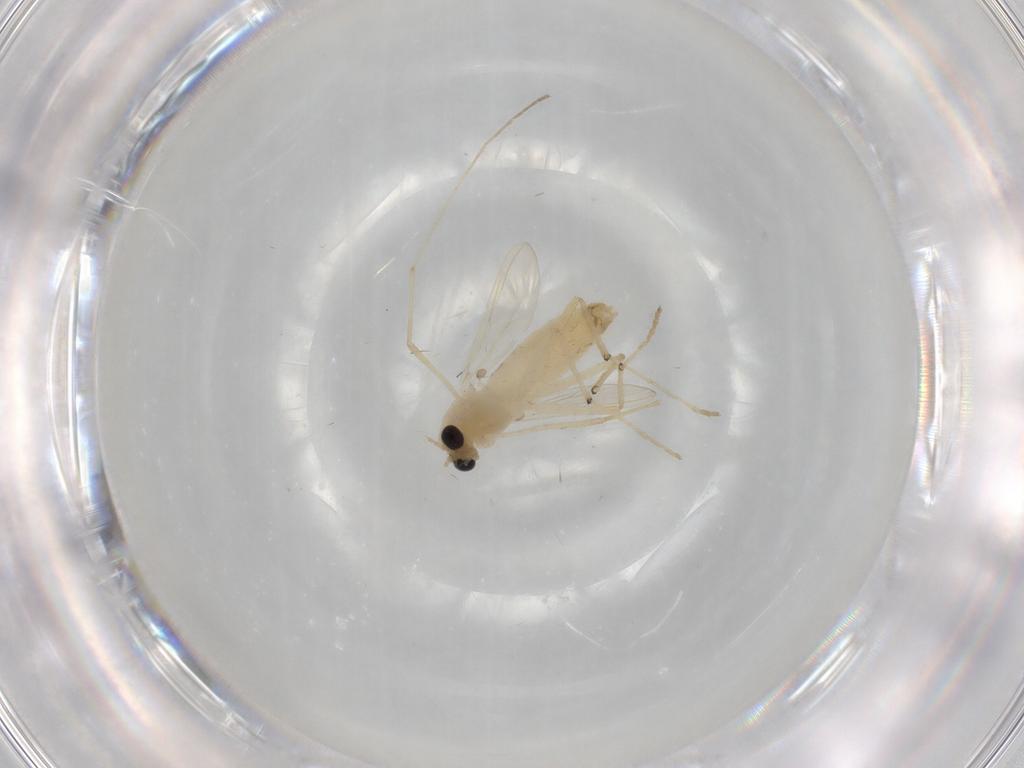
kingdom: Animalia
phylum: Arthropoda
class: Insecta
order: Diptera
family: Chironomidae
